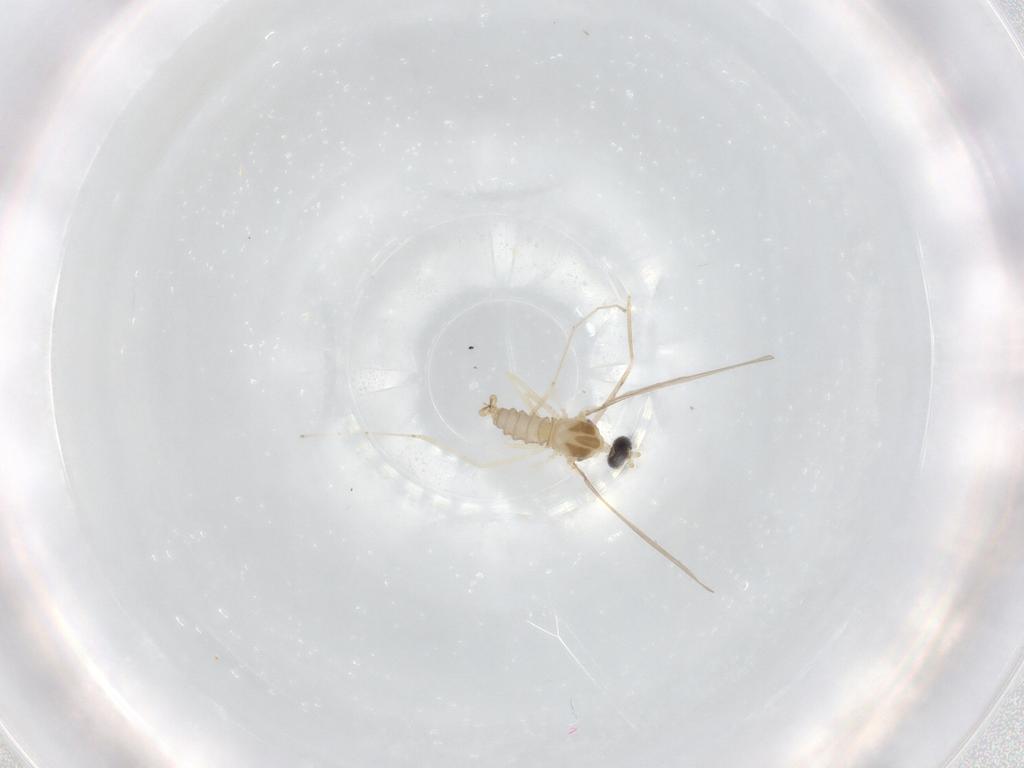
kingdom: Animalia
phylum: Arthropoda
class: Insecta
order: Diptera
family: Cecidomyiidae
